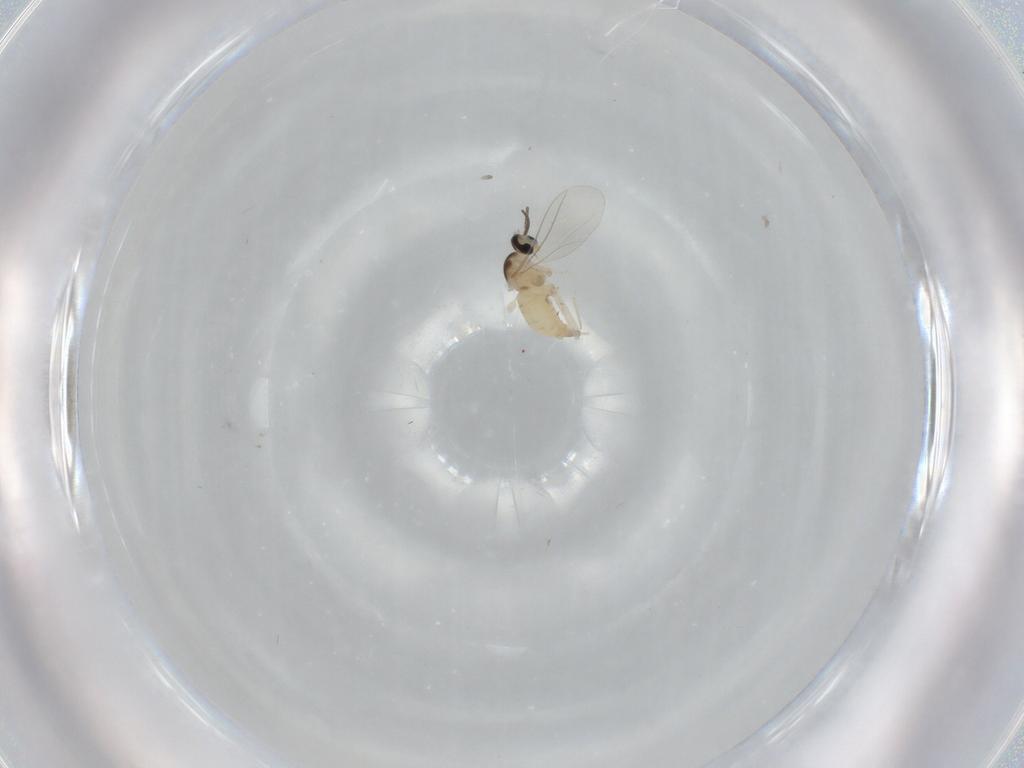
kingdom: Animalia
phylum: Arthropoda
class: Insecta
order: Diptera
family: Cecidomyiidae
